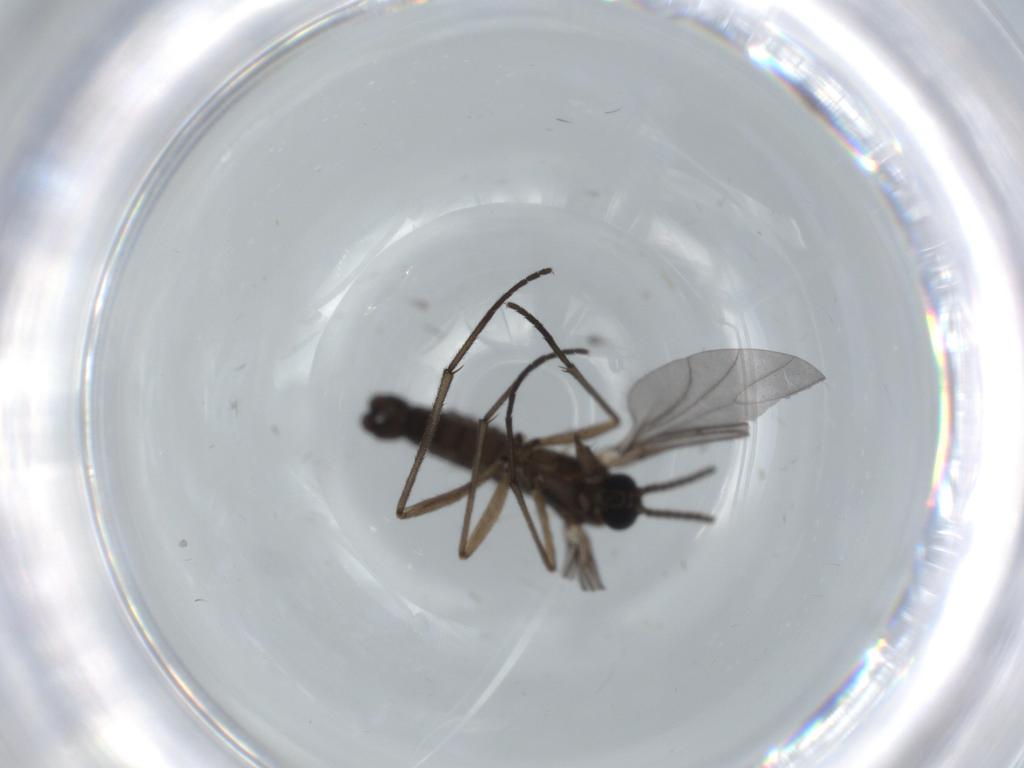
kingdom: Animalia
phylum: Arthropoda
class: Insecta
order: Diptera
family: Sciaridae
